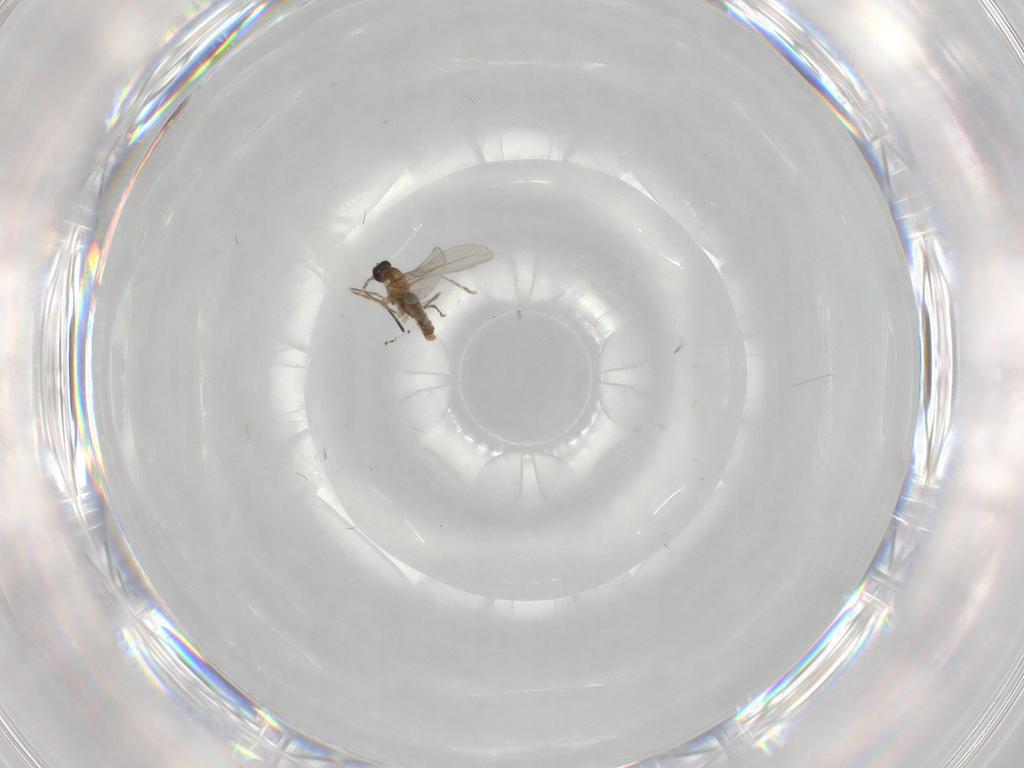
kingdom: Animalia
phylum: Arthropoda
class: Insecta
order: Diptera
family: Cecidomyiidae
